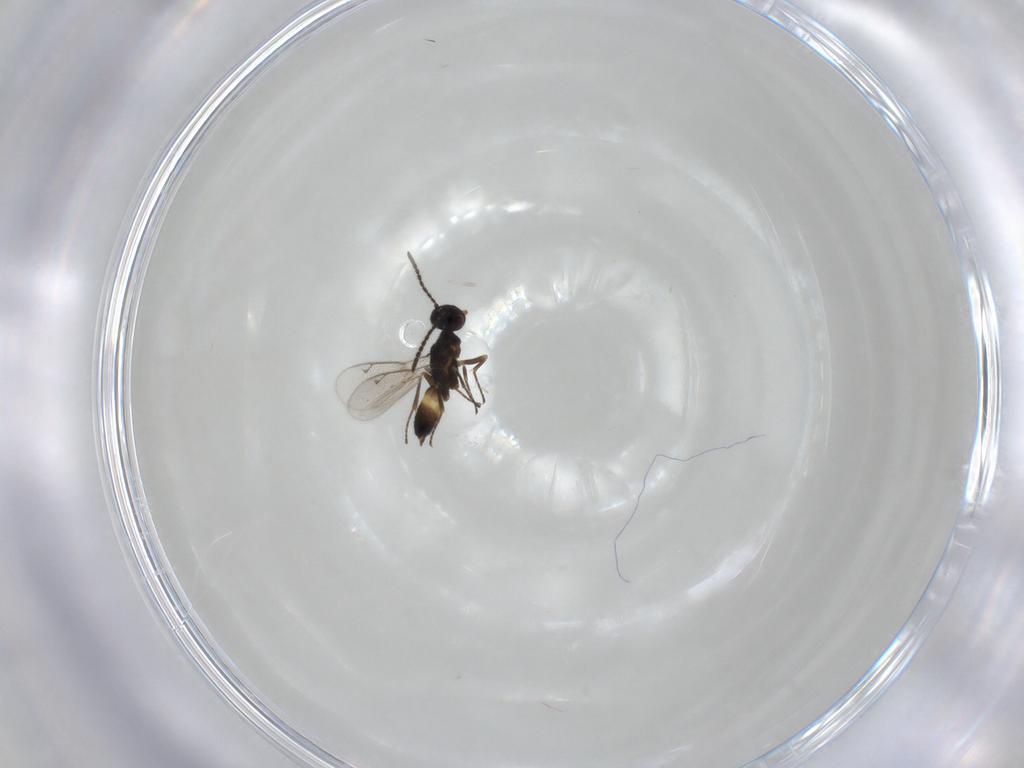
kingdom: Animalia
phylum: Arthropoda
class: Insecta
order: Hymenoptera
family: Eupelmidae
